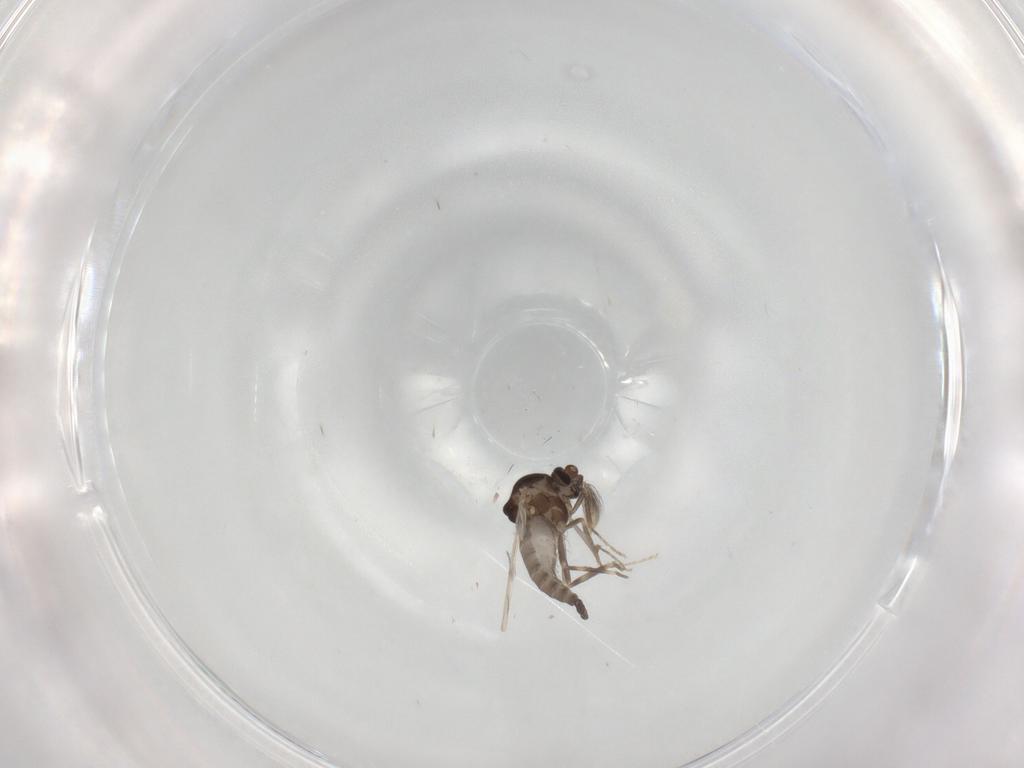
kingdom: Animalia
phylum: Arthropoda
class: Insecta
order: Diptera
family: Ceratopogonidae
